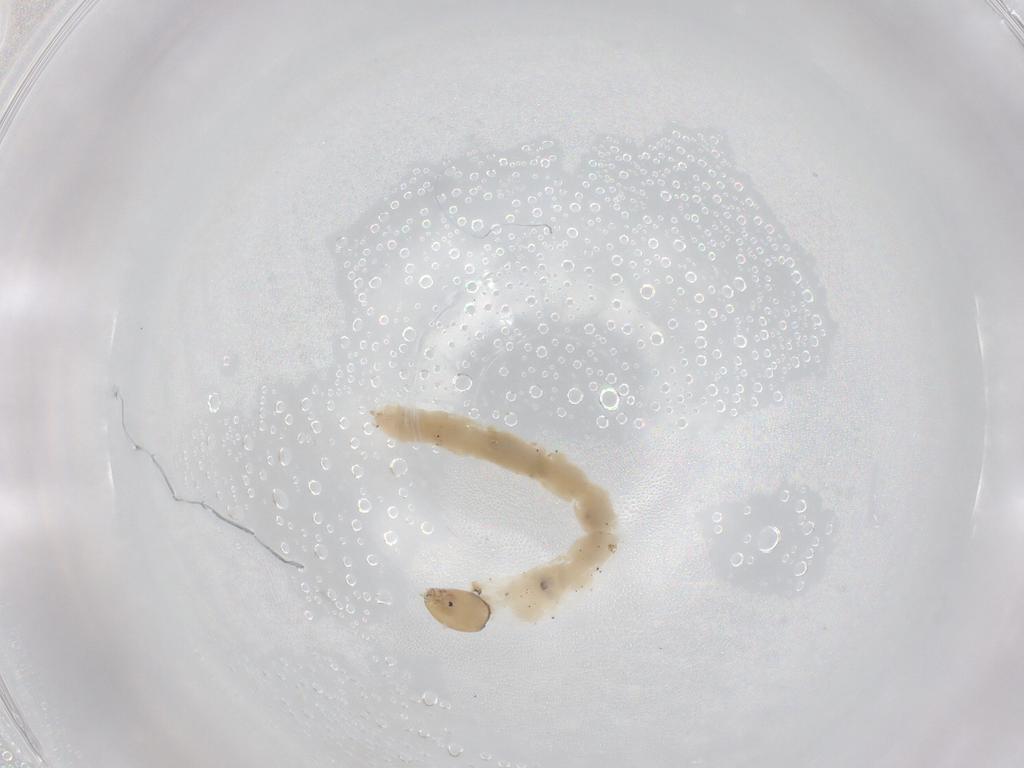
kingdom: Animalia
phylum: Arthropoda
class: Insecta
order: Diptera
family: Chironomidae
